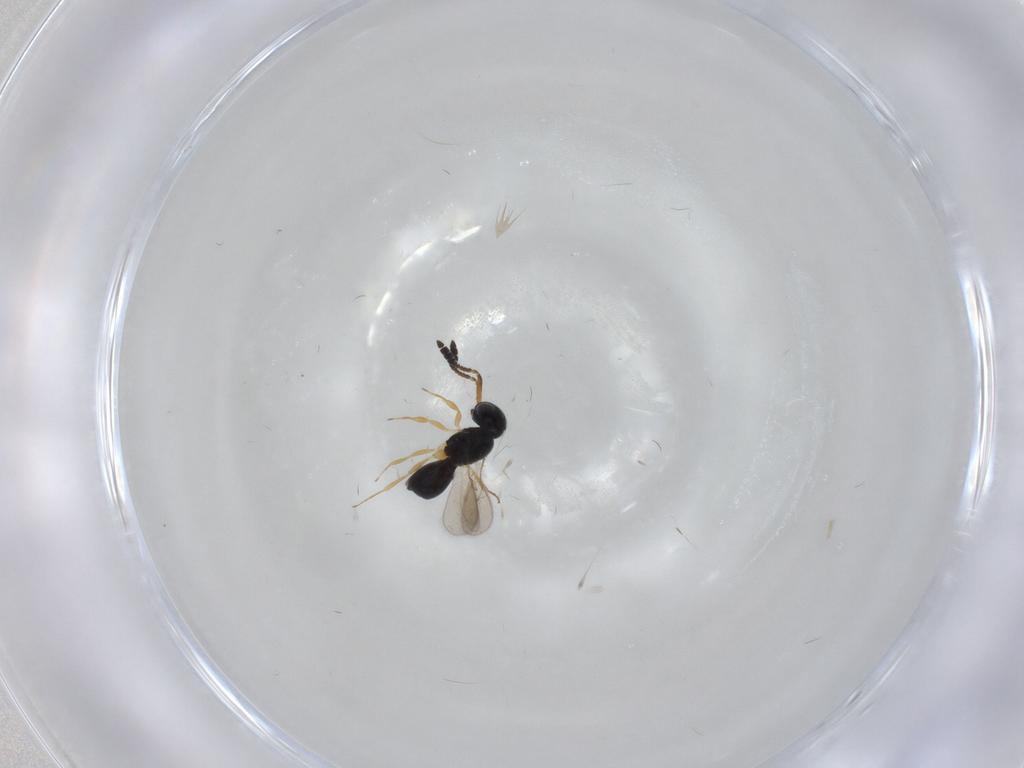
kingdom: Animalia
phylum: Arthropoda
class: Insecta
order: Hymenoptera
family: Scelionidae
